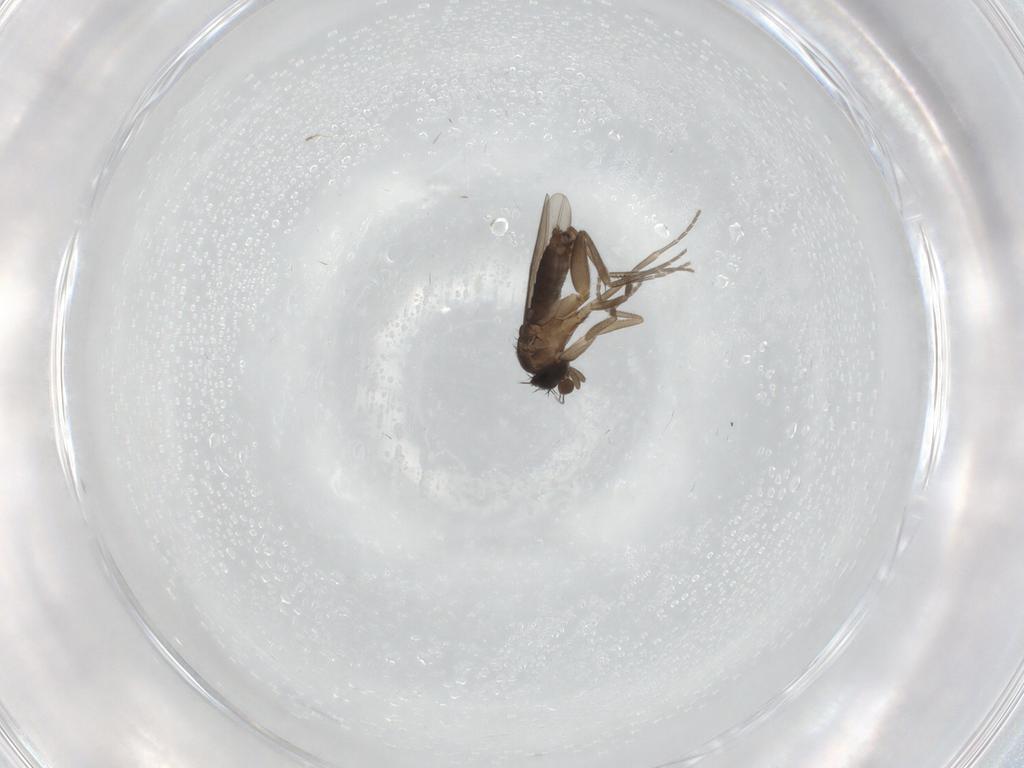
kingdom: Animalia
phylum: Arthropoda
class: Insecta
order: Diptera
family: Phoridae
